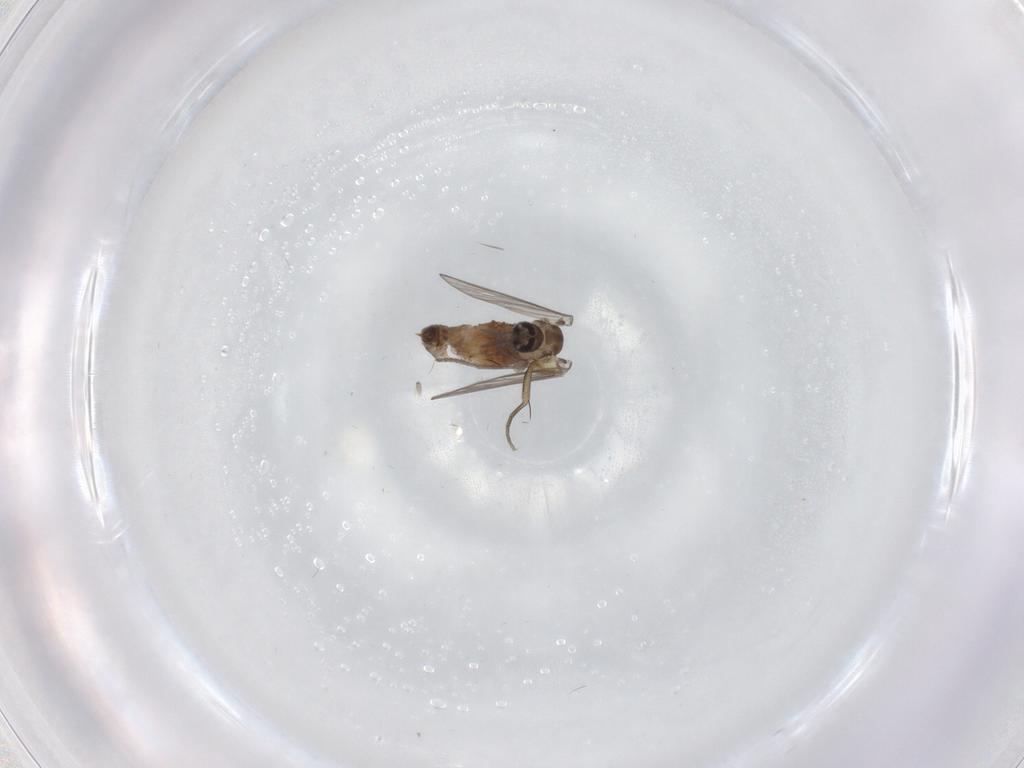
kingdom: Animalia
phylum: Arthropoda
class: Insecta
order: Diptera
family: Psychodidae
